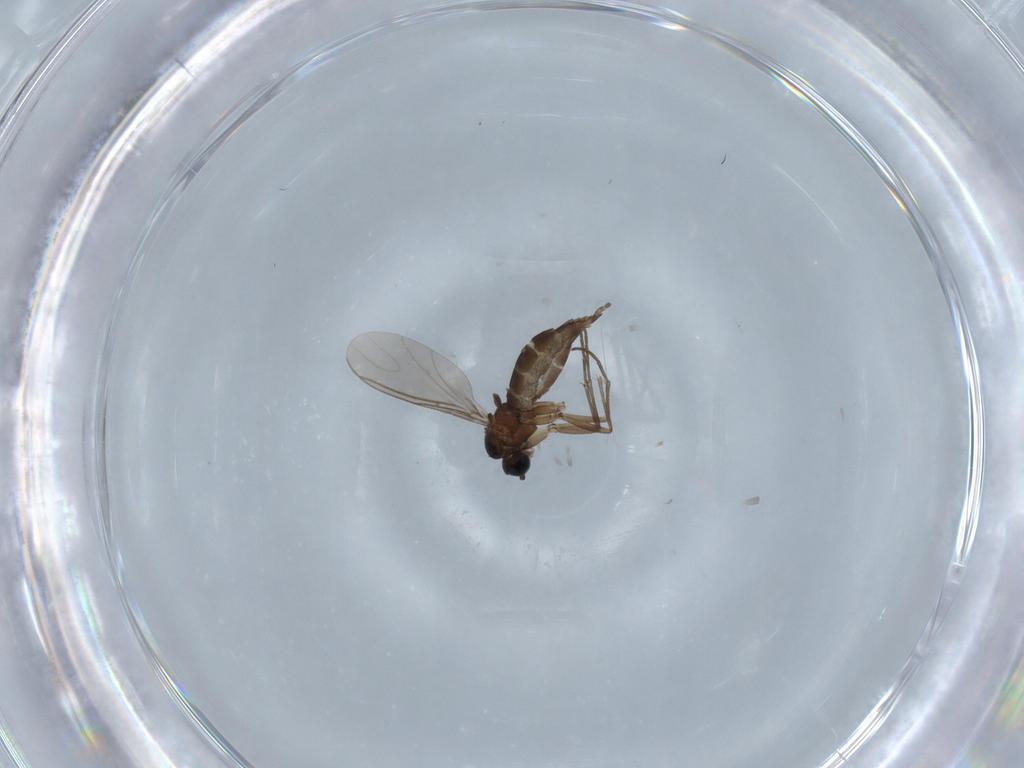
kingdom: Animalia
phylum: Arthropoda
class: Insecta
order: Diptera
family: Sciaridae
